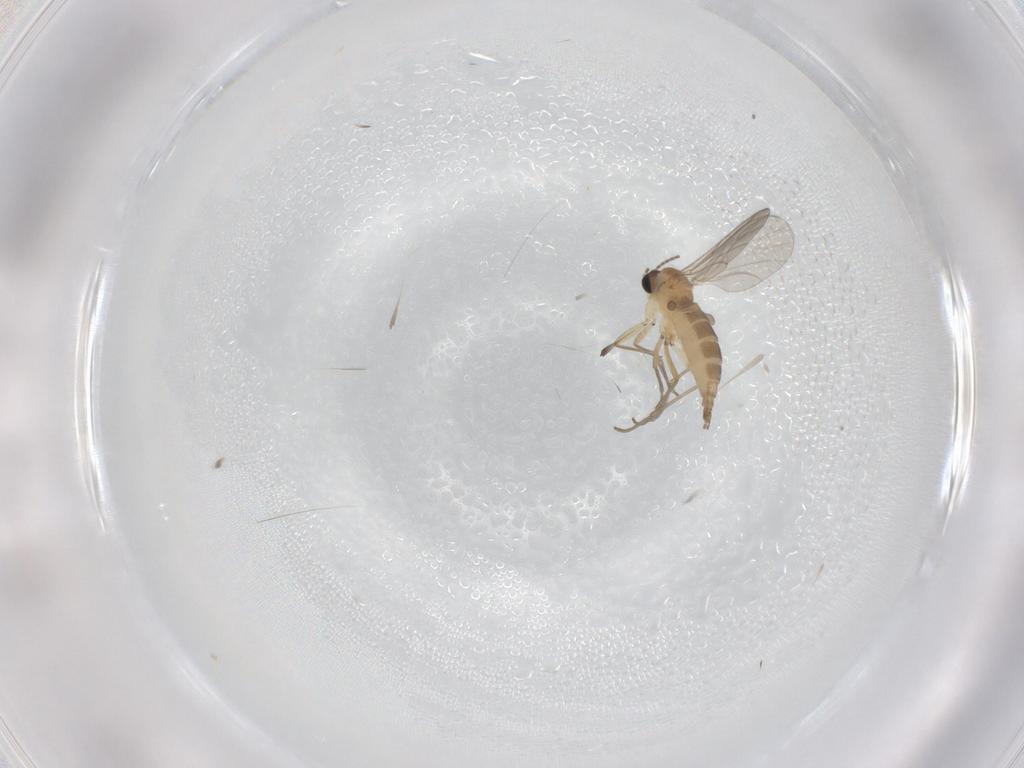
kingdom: Animalia
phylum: Arthropoda
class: Insecta
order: Diptera
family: Sciaridae
